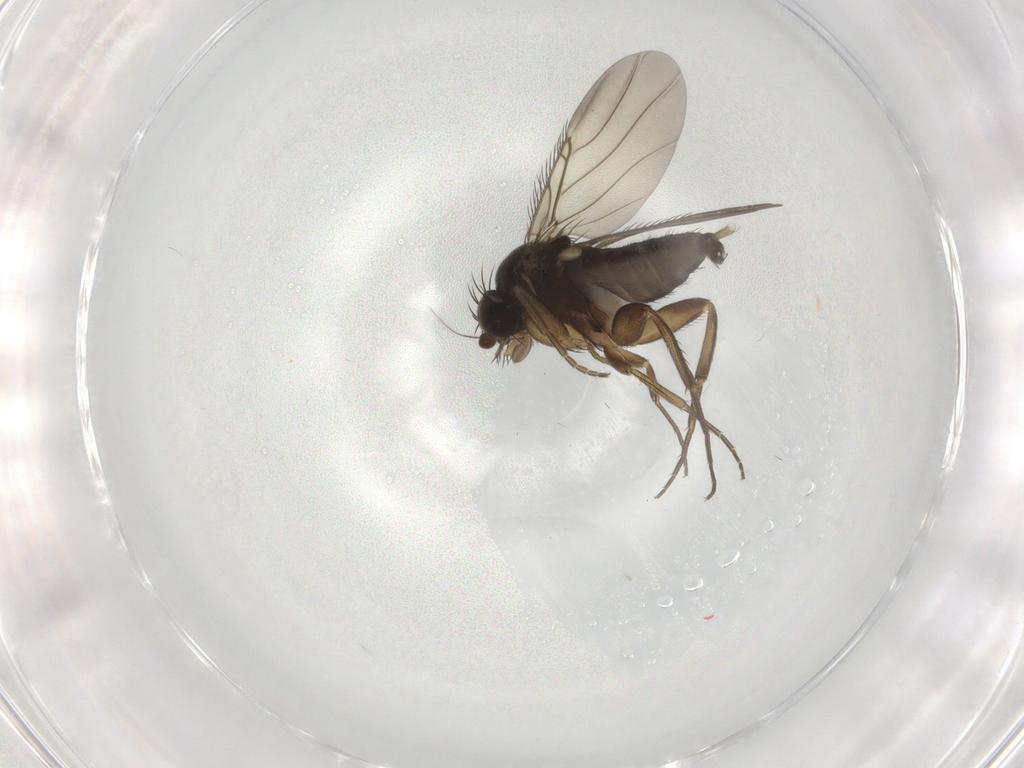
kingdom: Animalia
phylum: Arthropoda
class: Insecta
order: Diptera
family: Phoridae
